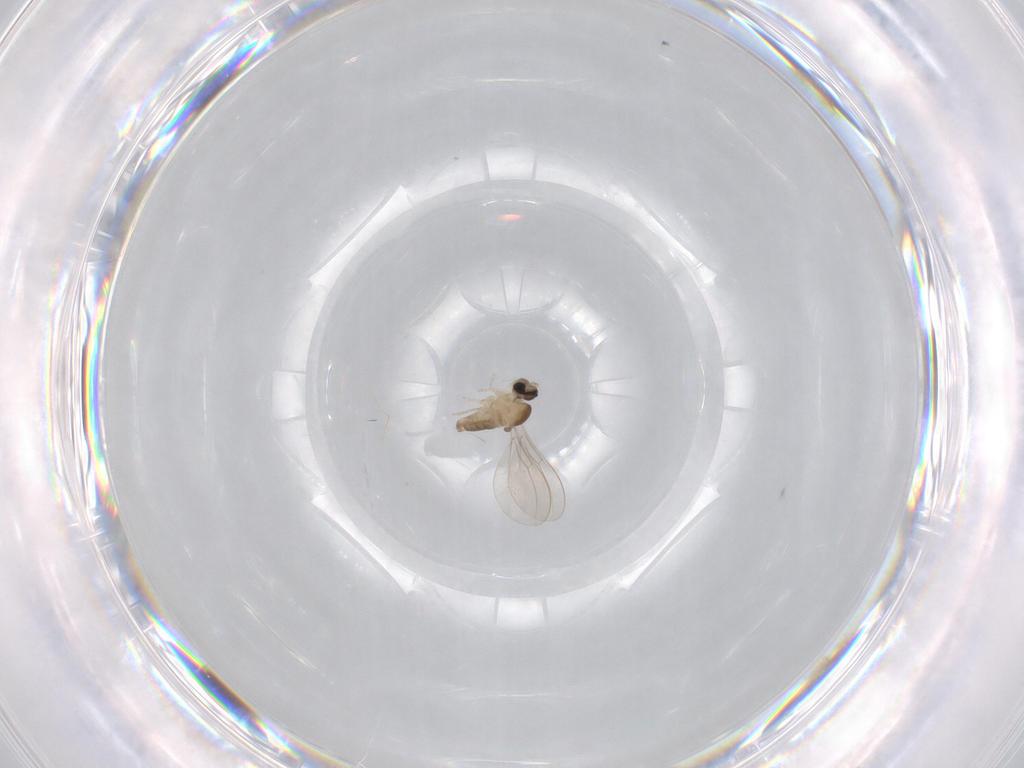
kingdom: Animalia
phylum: Arthropoda
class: Insecta
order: Diptera
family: Cecidomyiidae
